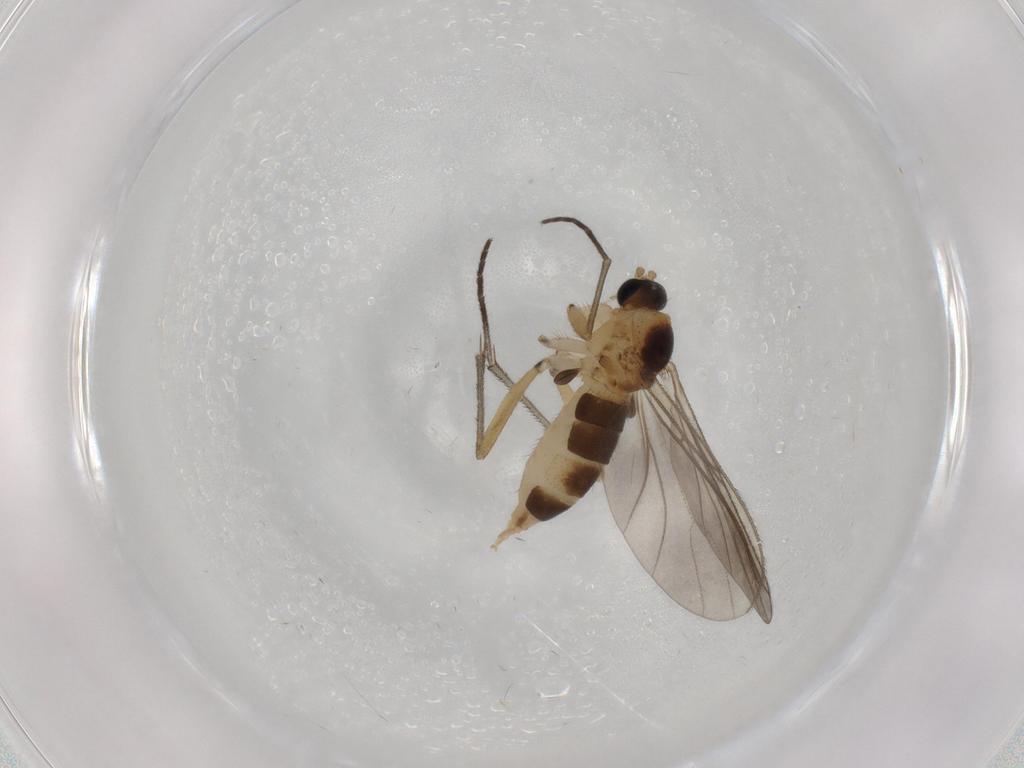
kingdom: Animalia
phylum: Arthropoda
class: Insecta
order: Diptera
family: Sciaridae
